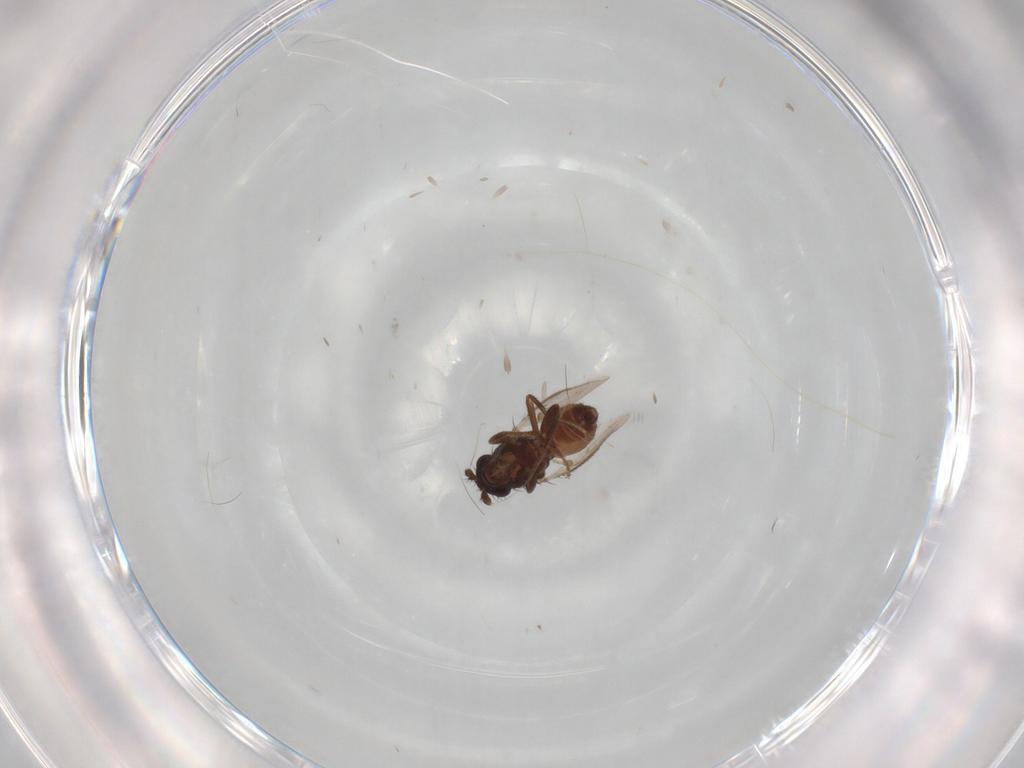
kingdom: Animalia
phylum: Arthropoda
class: Insecta
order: Diptera
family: Sphaeroceridae
